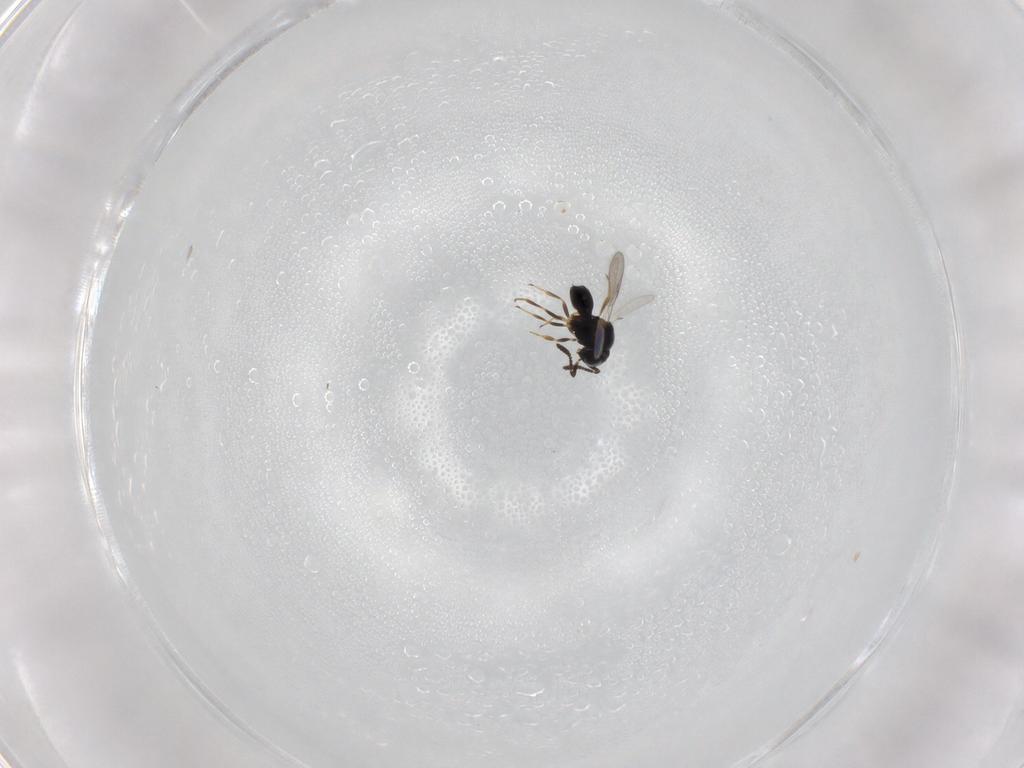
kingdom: Animalia
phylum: Arthropoda
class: Insecta
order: Hymenoptera
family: Scelionidae
